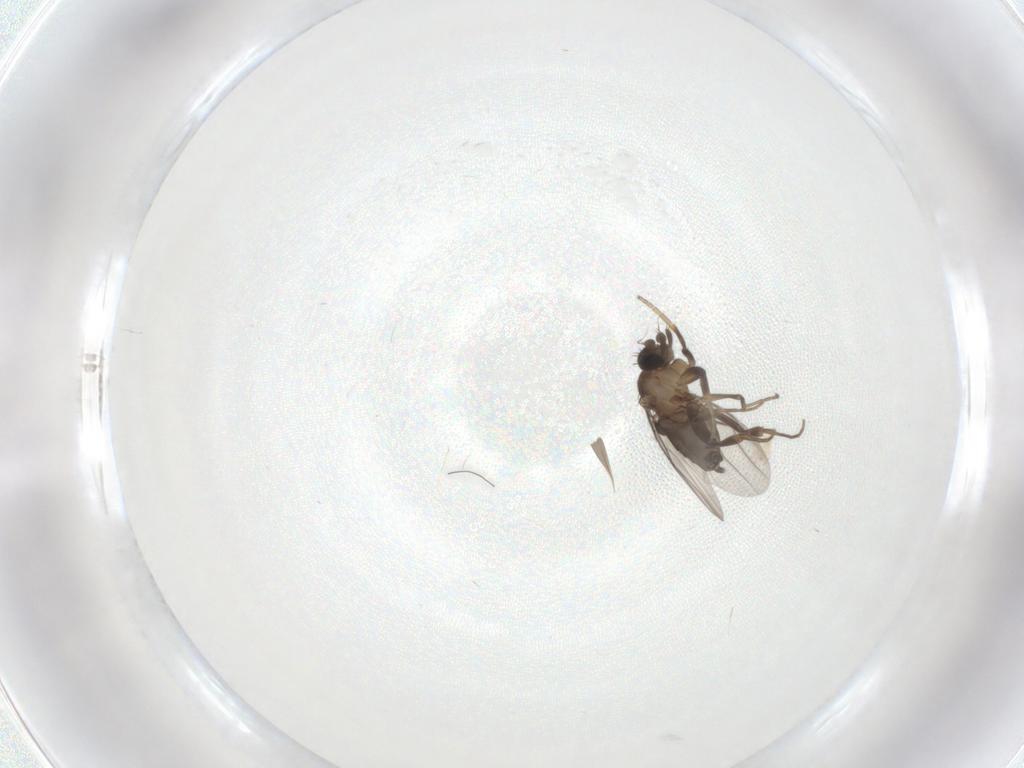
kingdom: Animalia
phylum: Arthropoda
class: Insecta
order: Diptera
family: Phoridae
